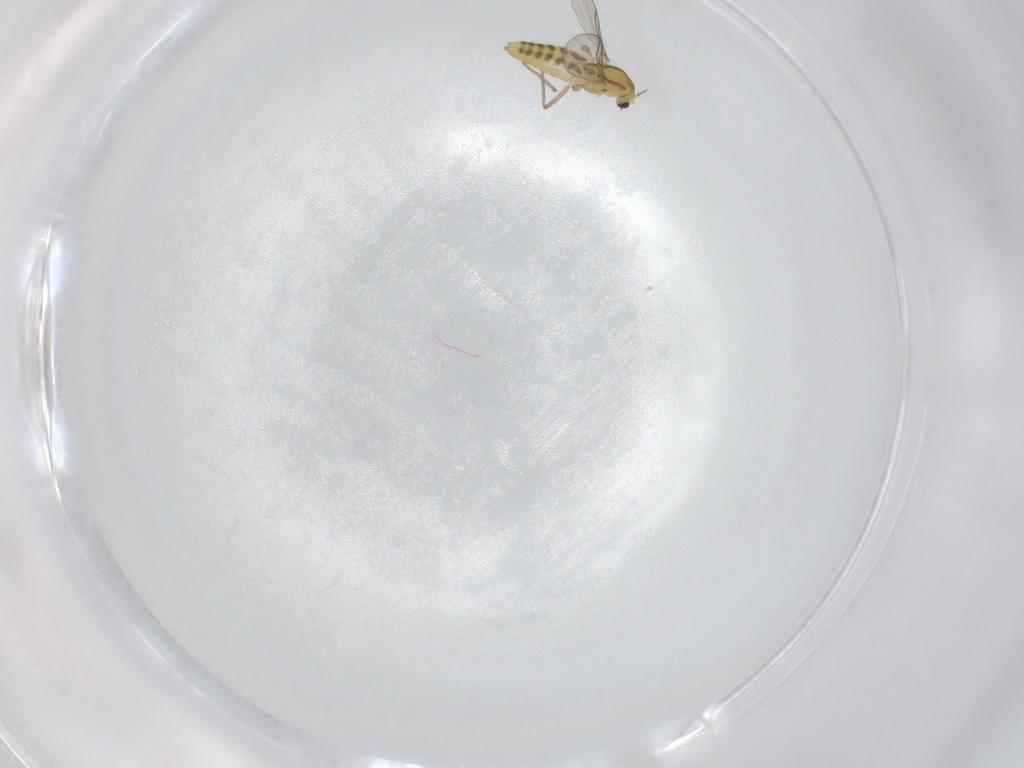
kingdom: Animalia
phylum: Arthropoda
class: Insecta
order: Diptera
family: Chironomidae
